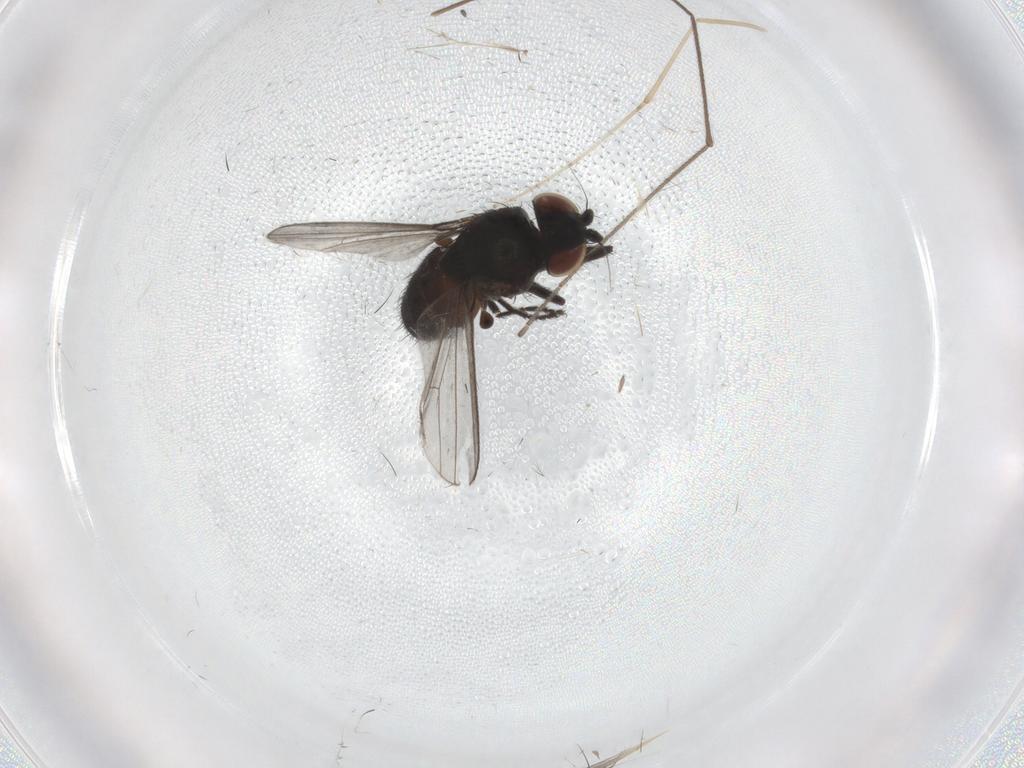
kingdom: Animalia
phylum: Arthropoda
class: Insecta
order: Diptera
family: Limoniidae
